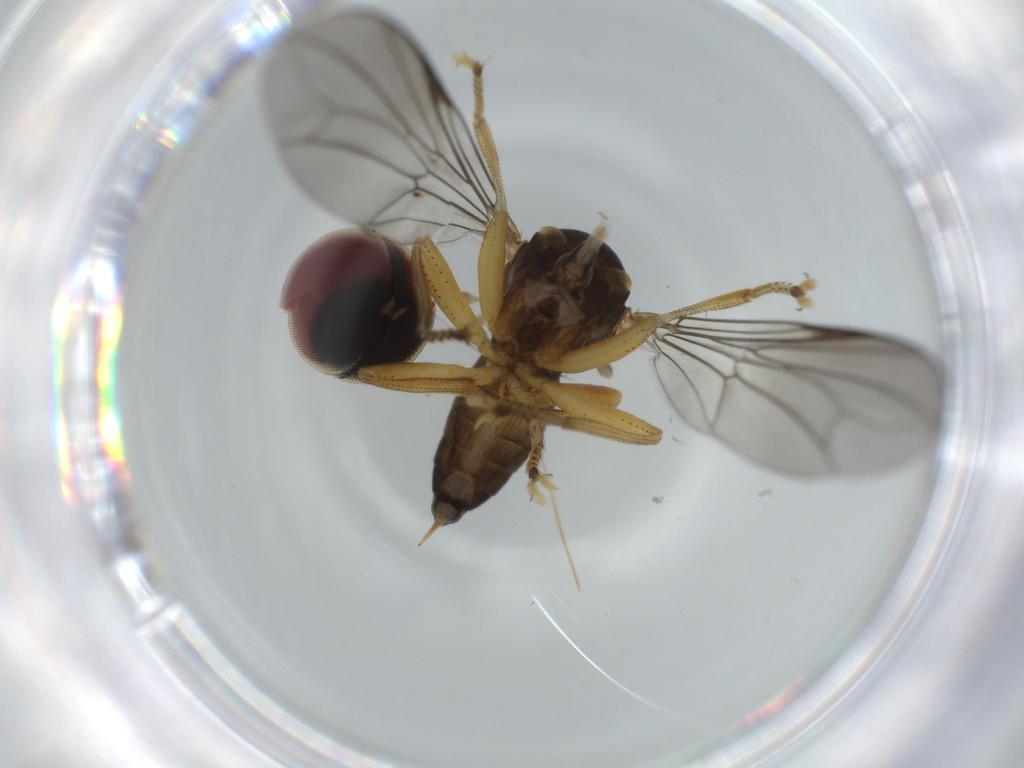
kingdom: Animalia
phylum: Arthropoda
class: Insecta
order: Diptera
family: Pipunculidae
